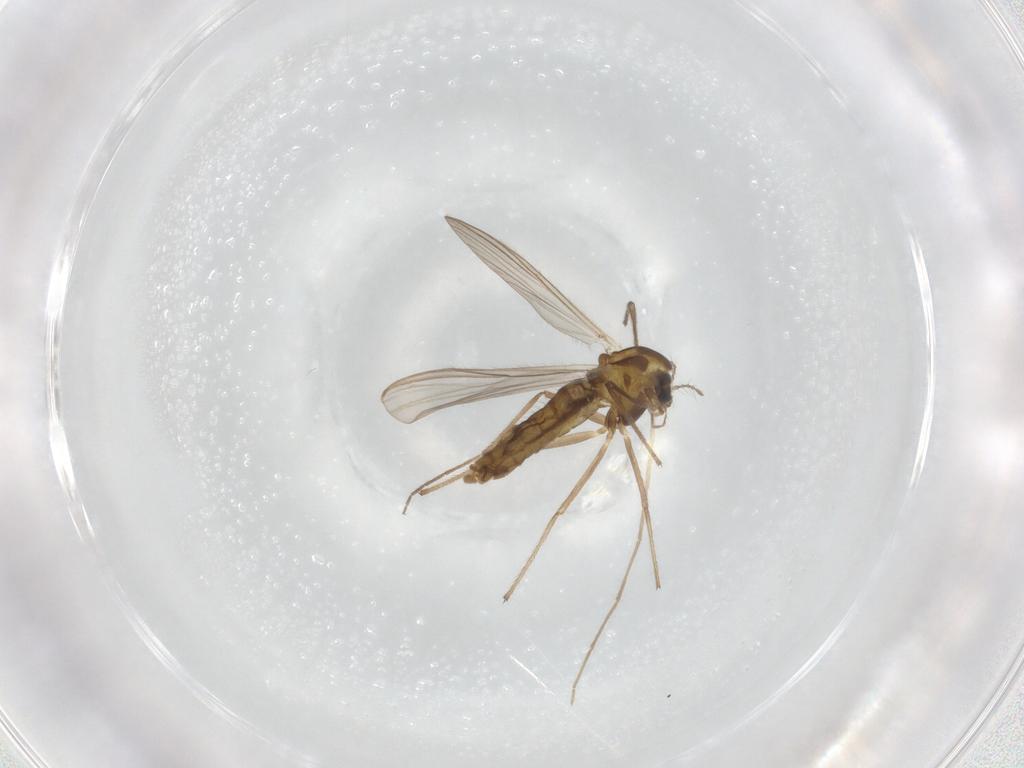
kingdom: Animalia
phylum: Arthropoda
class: Insecta
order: Diptera
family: Chironomidae
